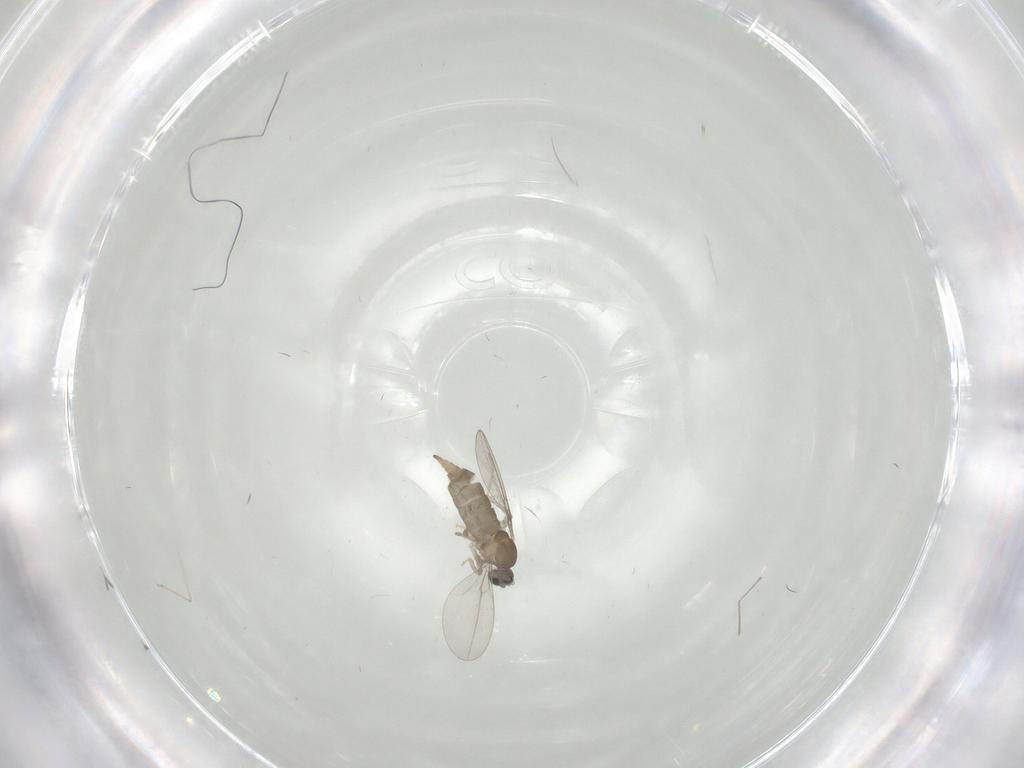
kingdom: Animalia
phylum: Arthropoda
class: Insecta
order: Diptera
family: Cecidomyiidae
